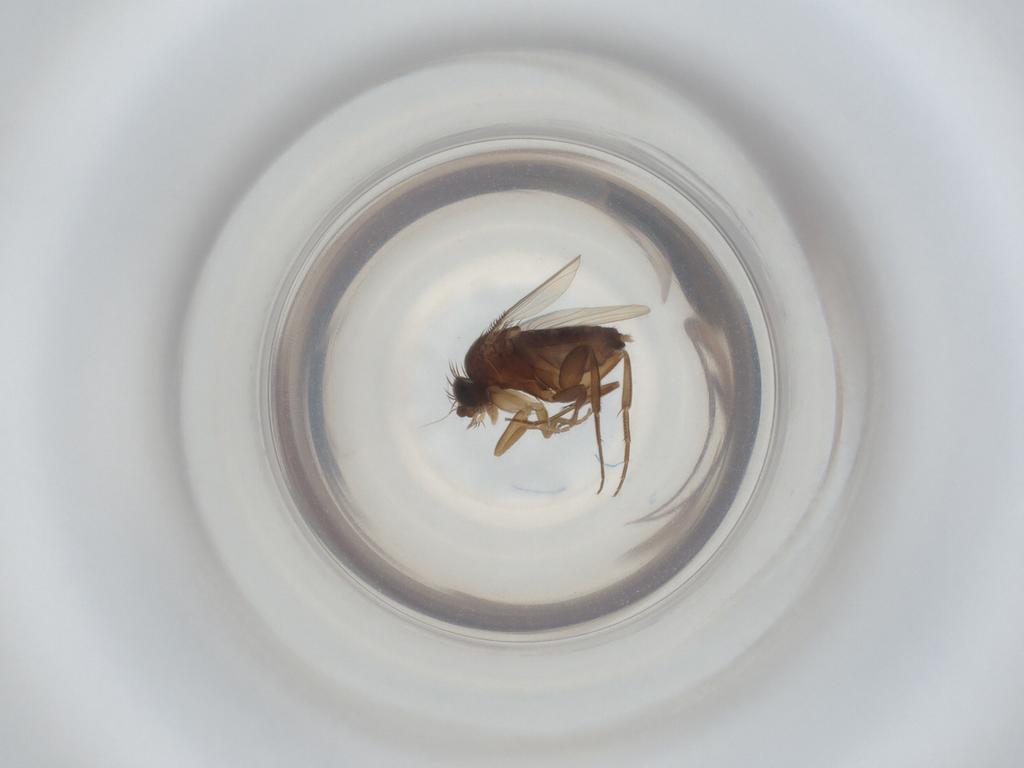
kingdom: Animalia
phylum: Arthropoda
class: Insecta
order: Diptera
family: Phoridae
